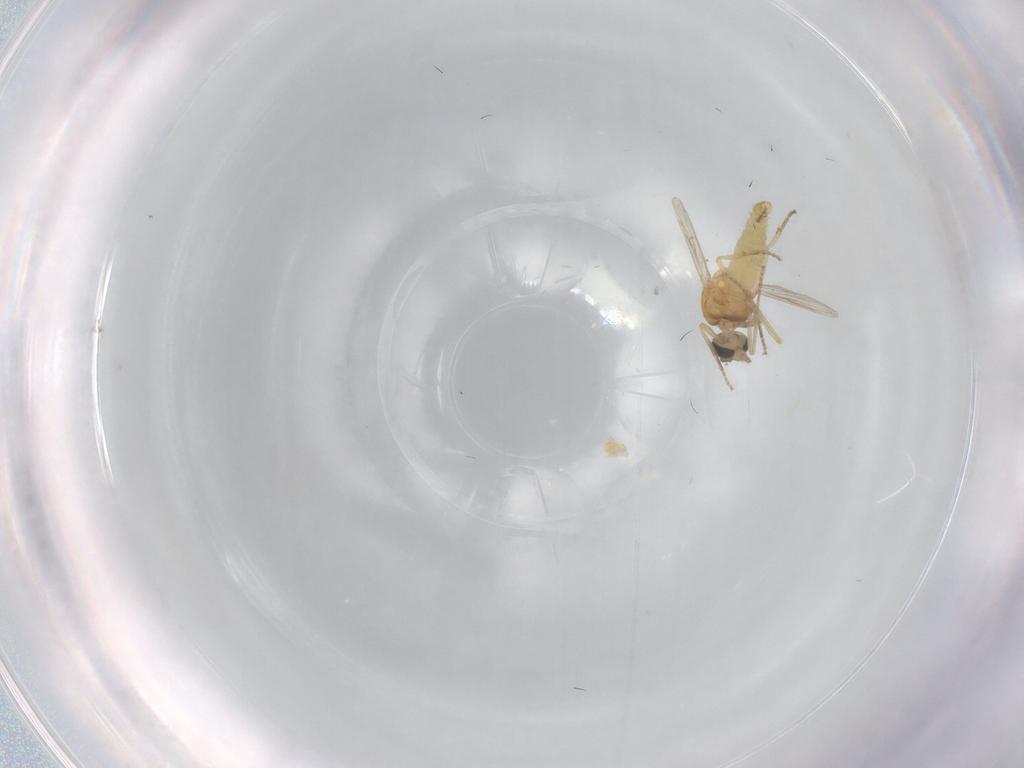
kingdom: Animalia
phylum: Arthropoda
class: Insecta
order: Diptera
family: Ceratopogonidae
